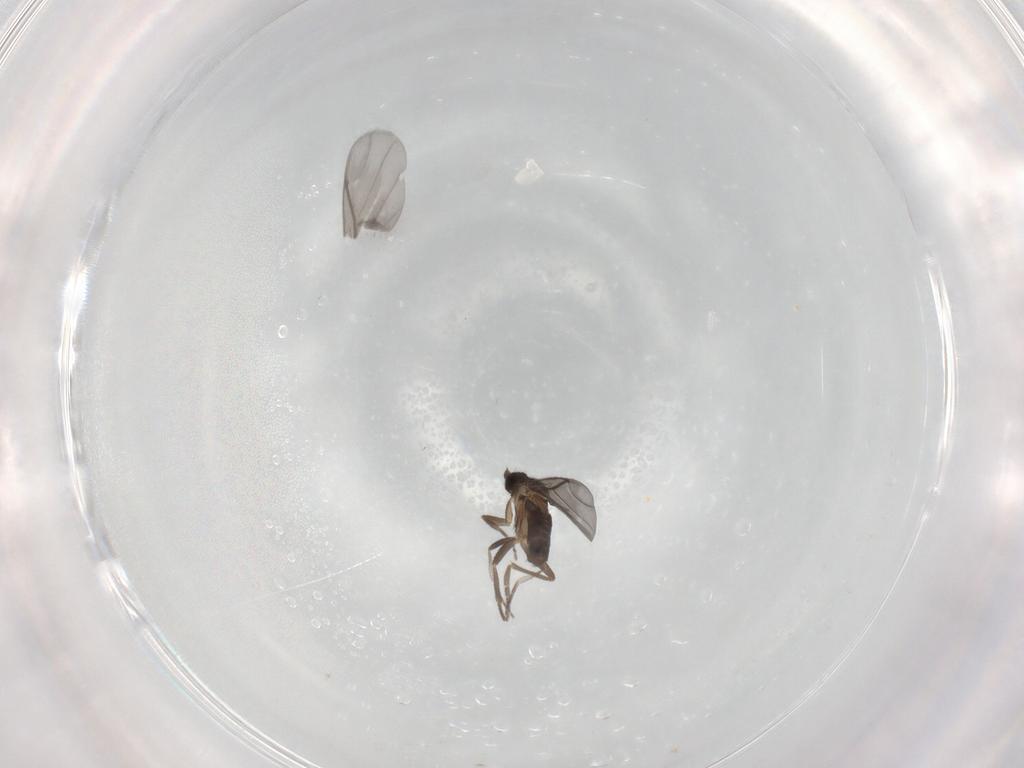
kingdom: Animalia
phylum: Arthropoda
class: Insecta
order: Diptera
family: Phoridae
